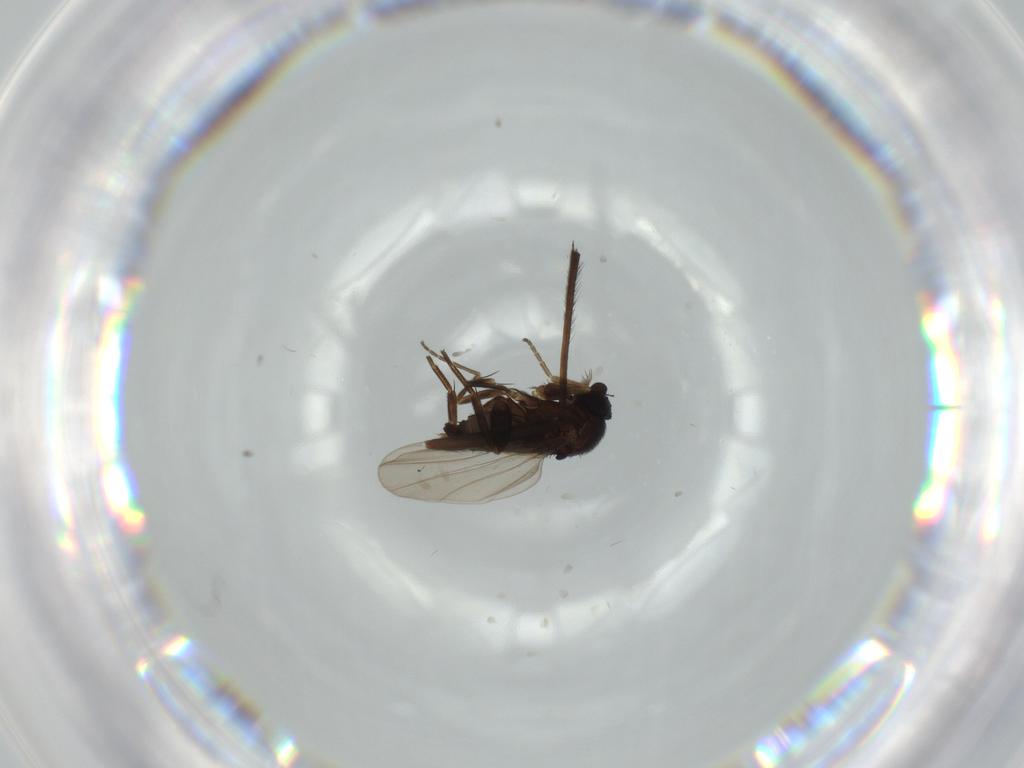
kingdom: Animalia
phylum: Arthropoda
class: Insecta
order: Diptera
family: Phoridae
